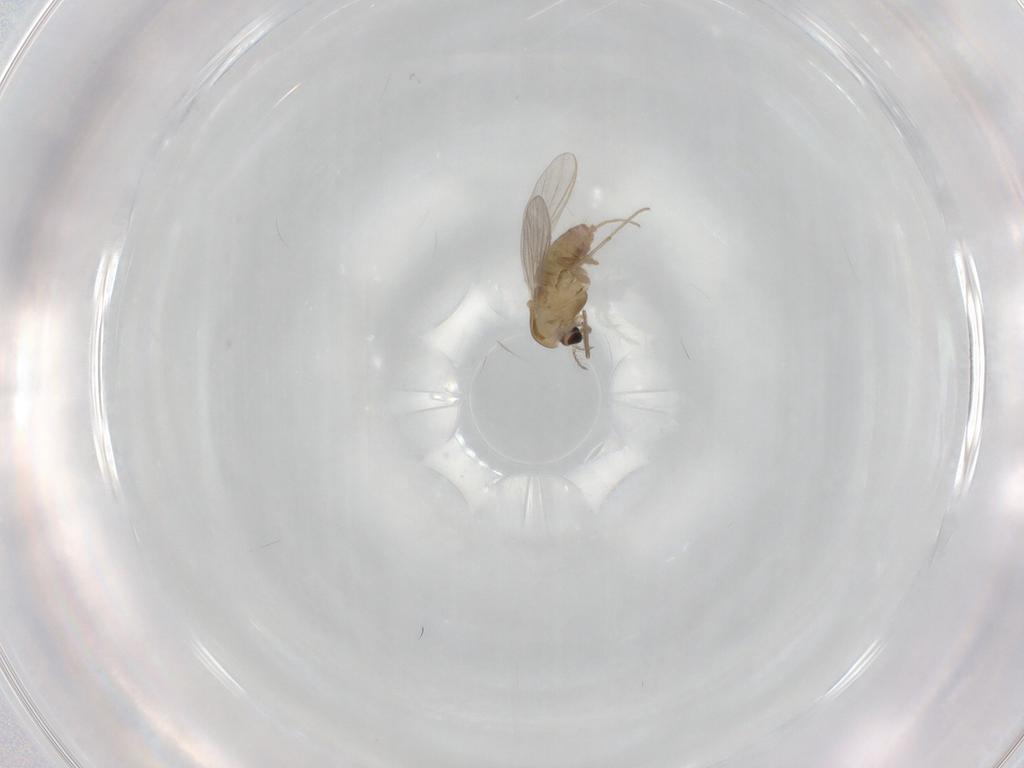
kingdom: Animalia
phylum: Arthropoda
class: Insecta
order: Diptera
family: Chironomidae
